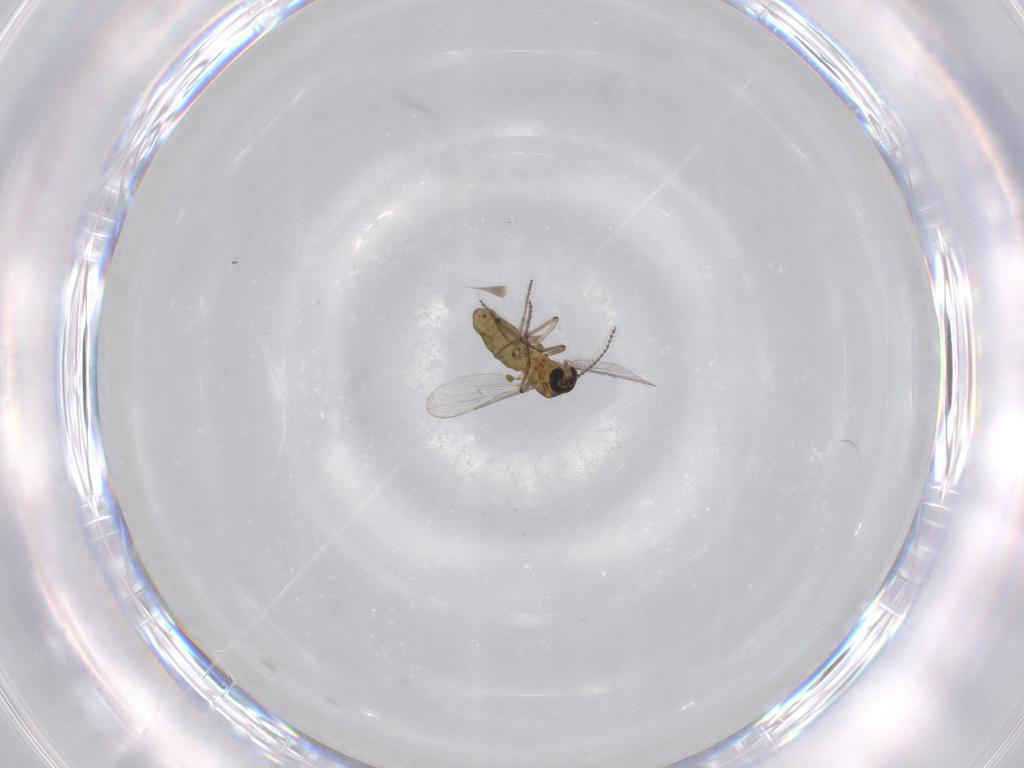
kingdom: Animalia
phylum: Arthropoda
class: Insecta
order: Diptera
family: Ceratopogonidae
